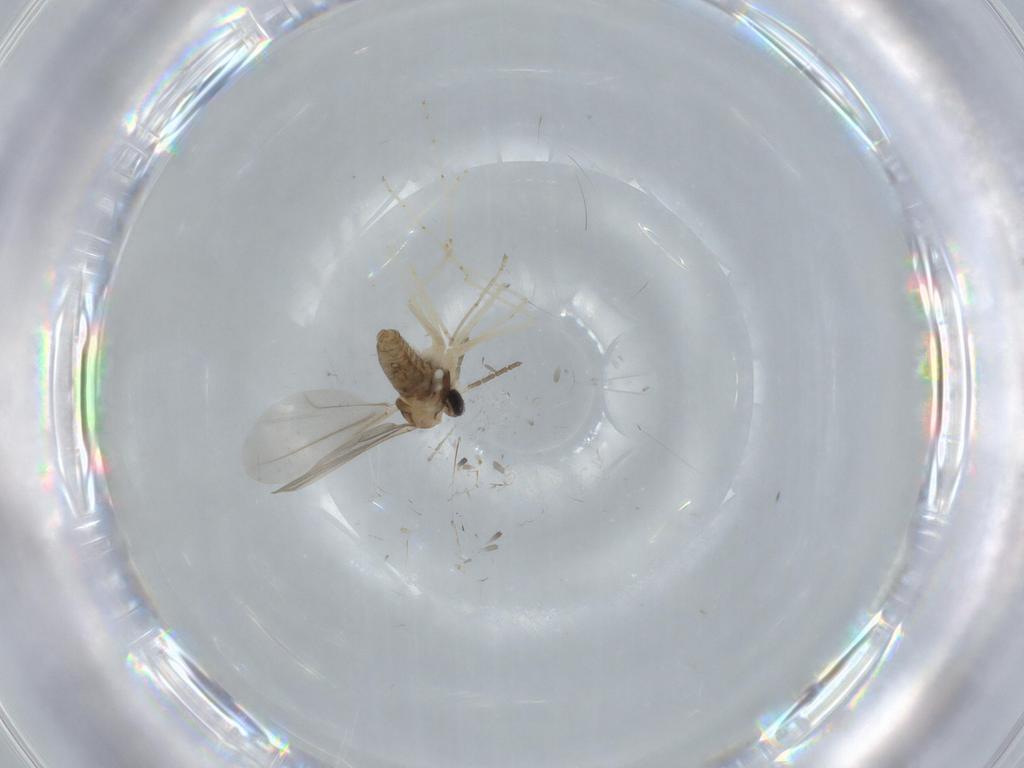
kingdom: Animalia
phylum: Arthropoda
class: Insecta
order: Diptera
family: Cecidomyiidae
